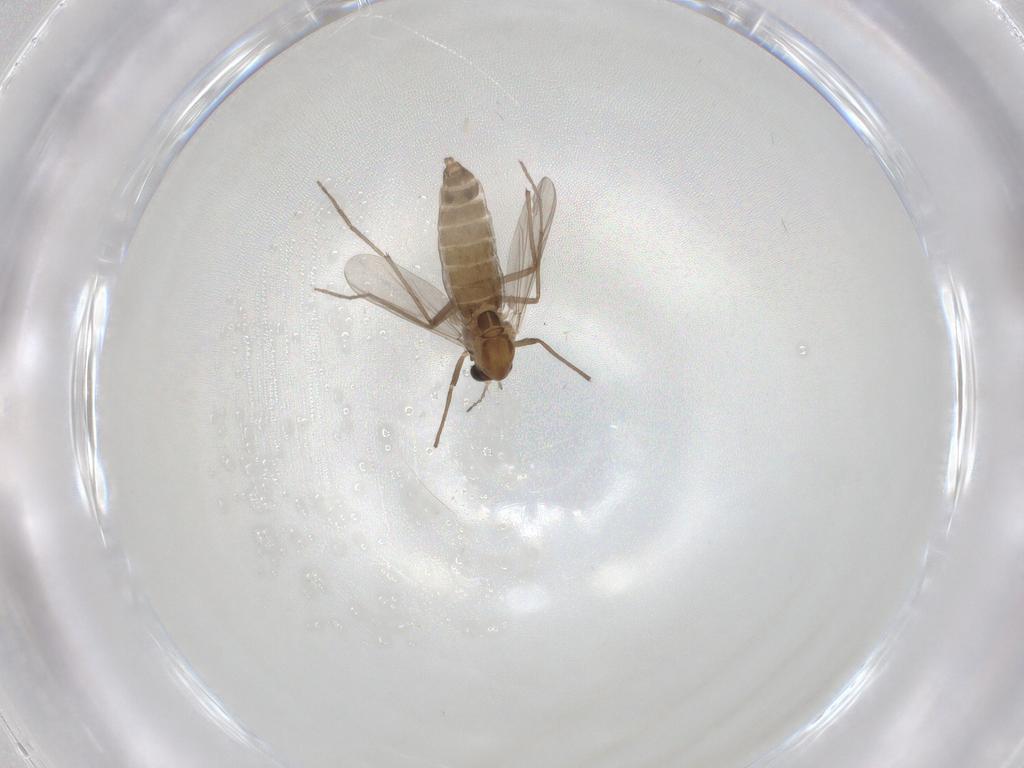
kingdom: Animalia
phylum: Arthropoda
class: Insecta
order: Diptera
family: Chironomidae
